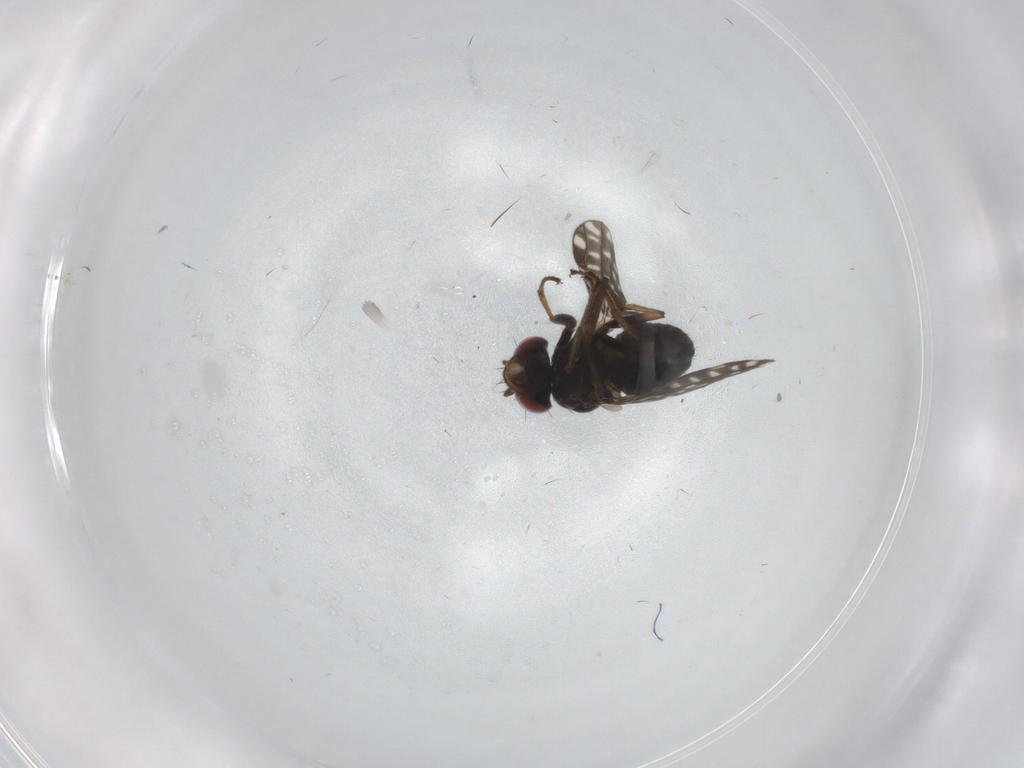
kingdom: Animalia
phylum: Arthropoda
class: Insecta
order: Diptera
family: Ephydridae
